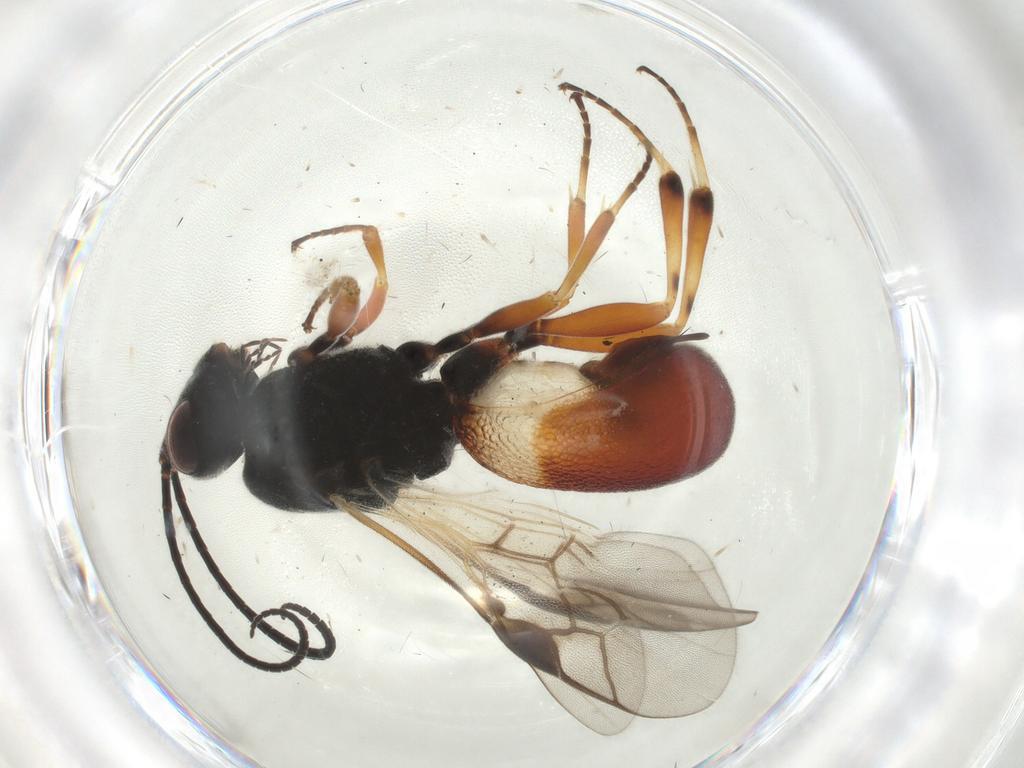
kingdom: Animalia
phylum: Arthropoda
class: Insecta
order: Hymenoptera
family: Braconidae
